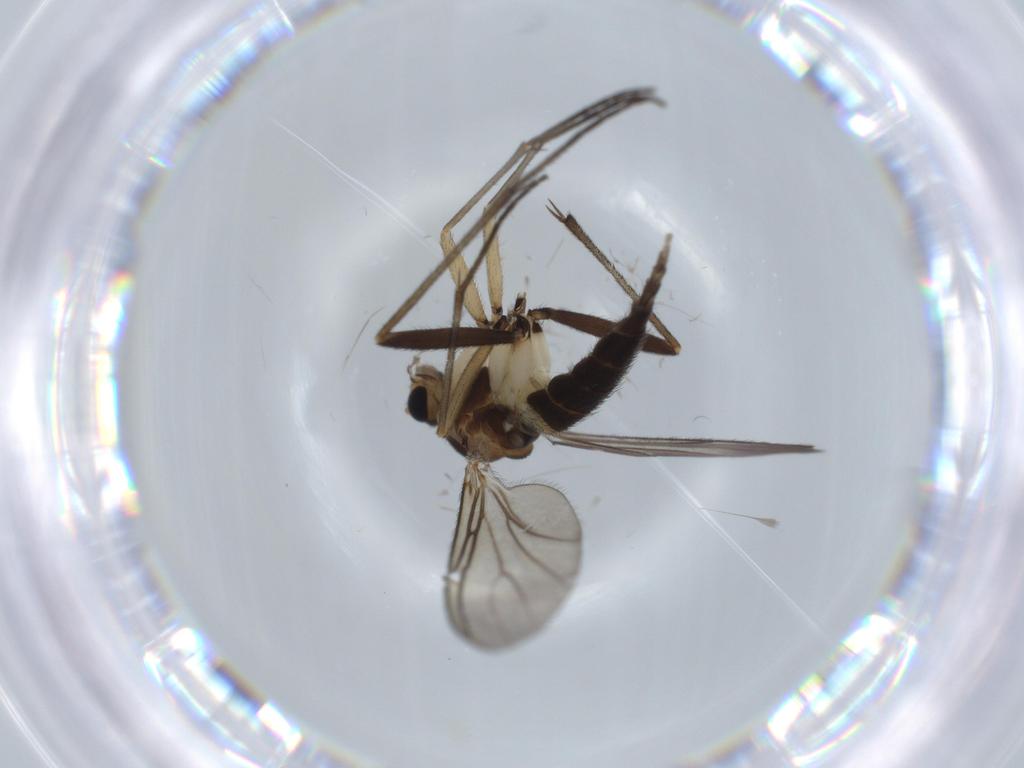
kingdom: Animalia
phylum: Arthropoda
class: Insecta
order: Diptera
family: Sciaridae
